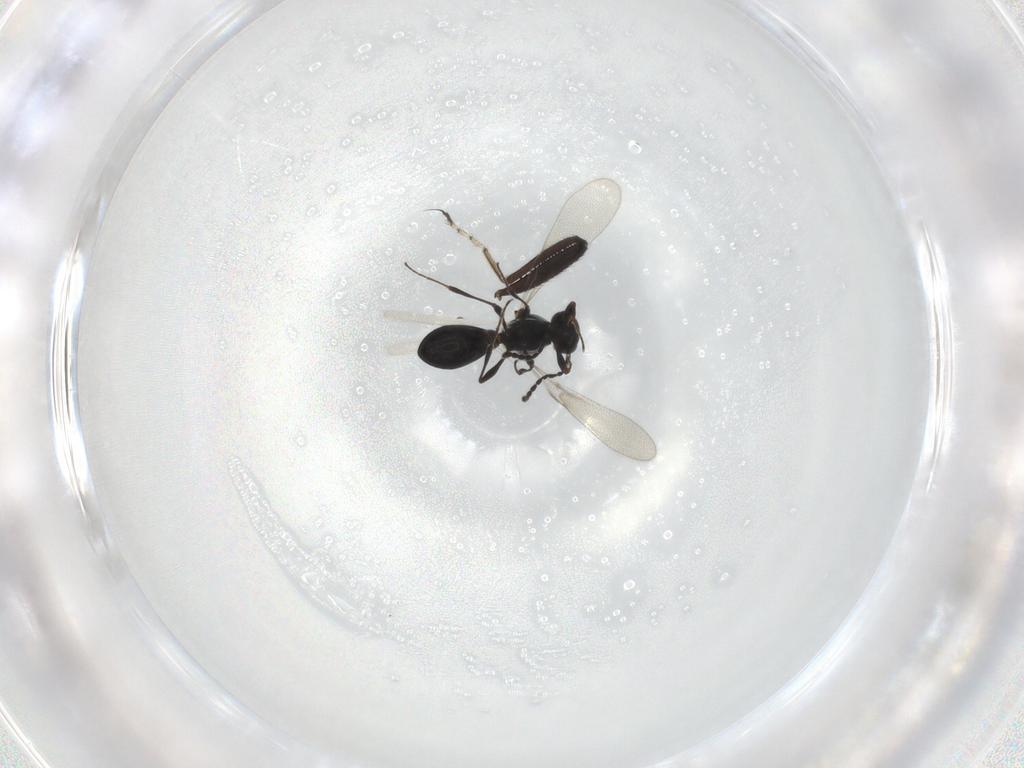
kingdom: Animalia
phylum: Arthropoda
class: Insecta
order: Hymenoptera
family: Platygastridae
